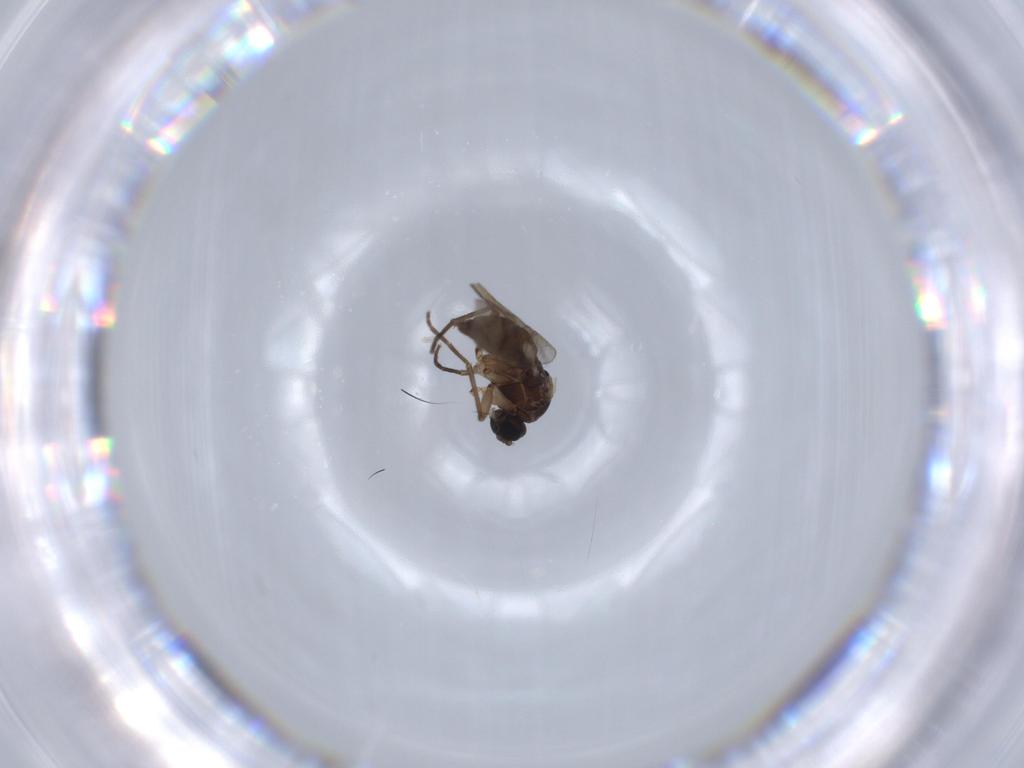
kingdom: Animalia
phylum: Arthropoda
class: Insecta
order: Diptera
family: Sciaridae
